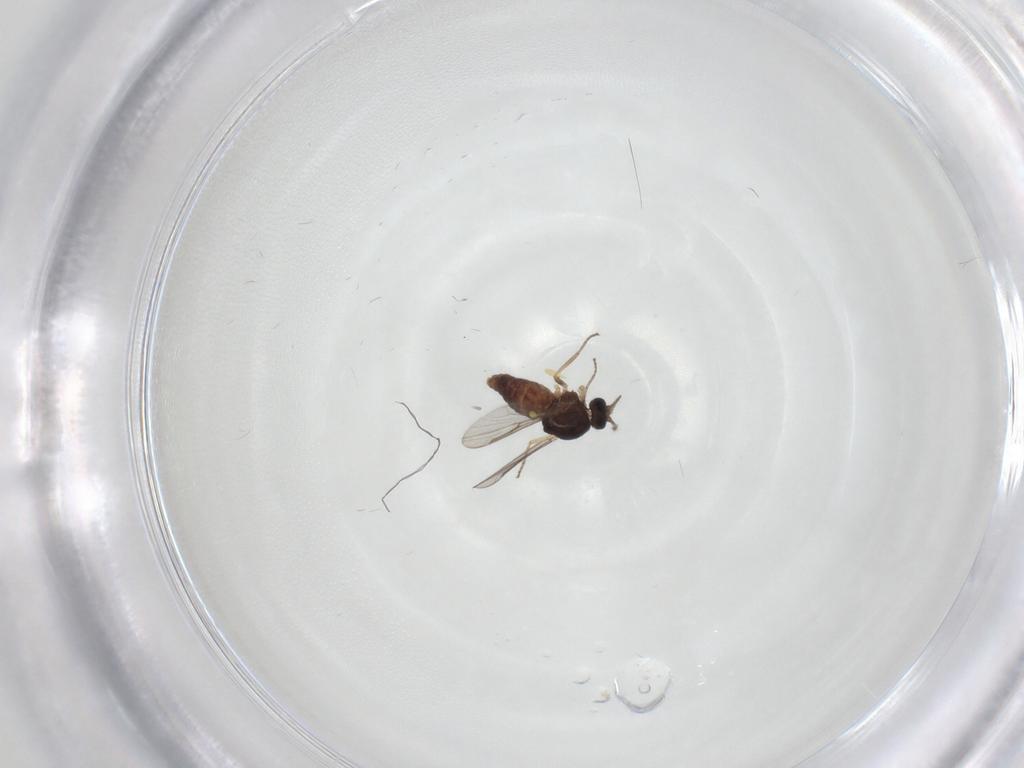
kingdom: Animalia
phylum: Arthropoda
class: Insecta
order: Diptera
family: Ceratopogonidae
